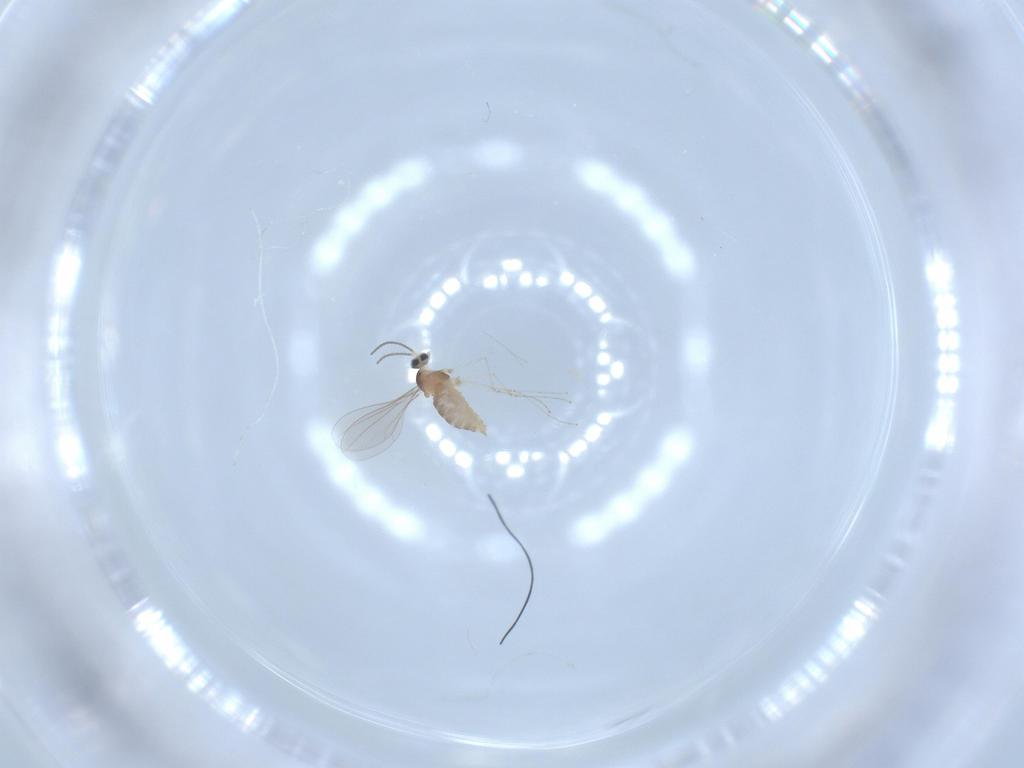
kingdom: Animalia
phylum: Arthropoda
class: Insecta
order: Diptera
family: Cecidomyiidae
